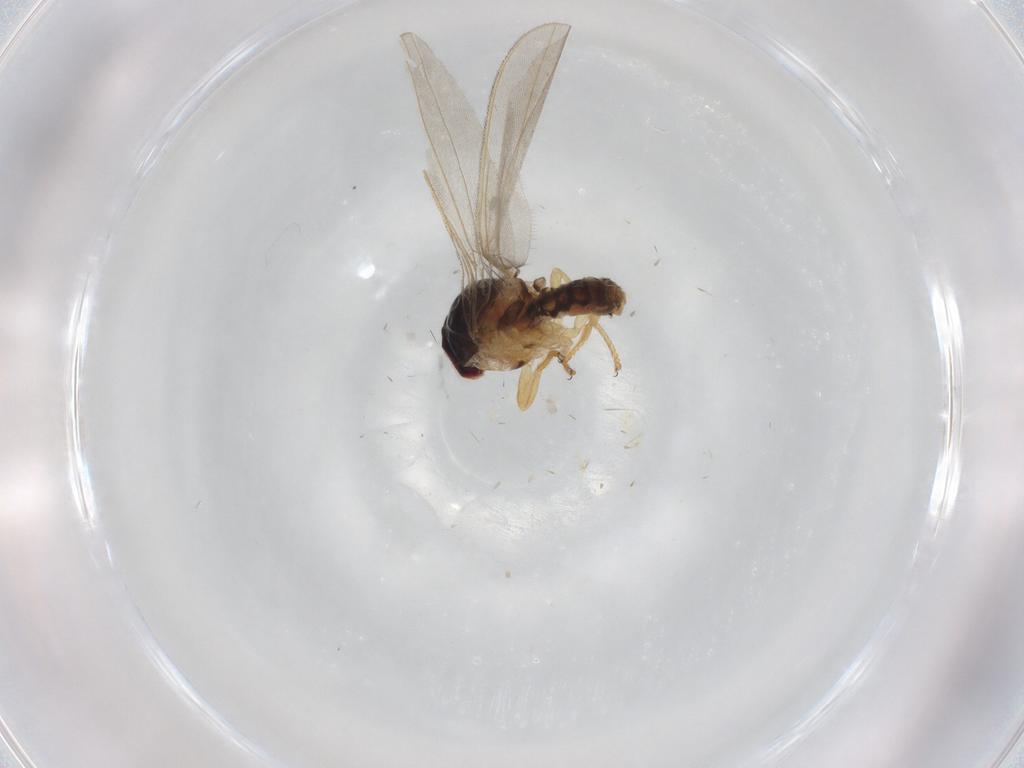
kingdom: Animalia
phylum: Arthropoda
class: Insecta
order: Diptera
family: Asteiidae
